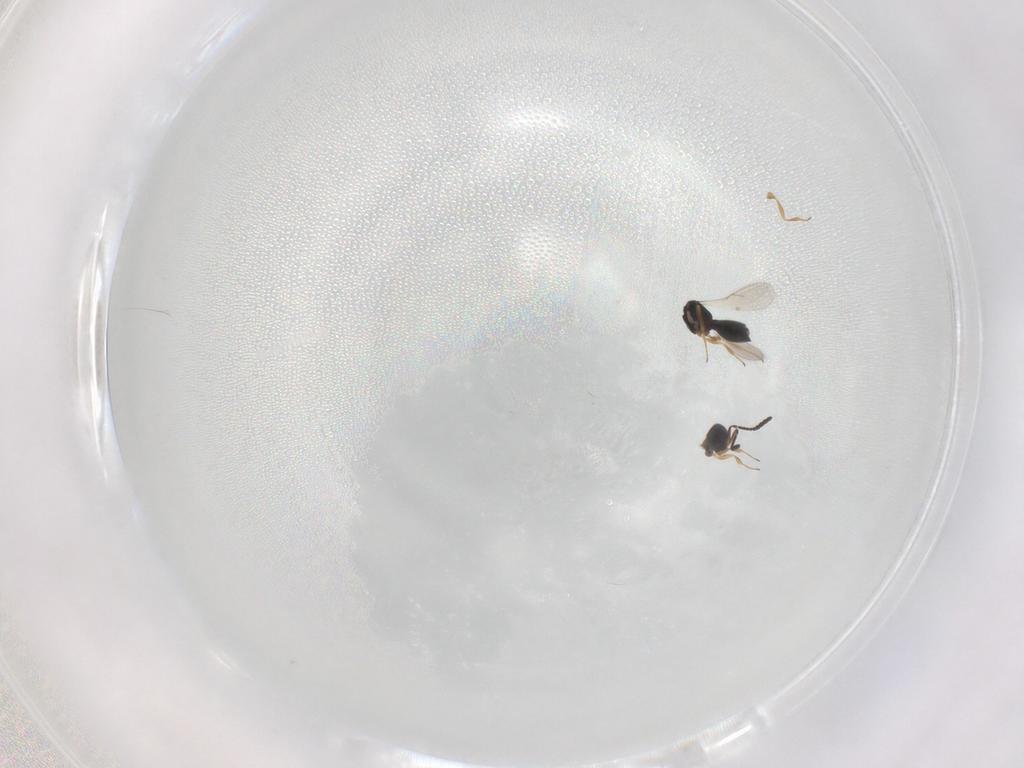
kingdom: Animalia
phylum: Arthropoda
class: Insecta
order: Hymenoptera
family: Scelionidae
